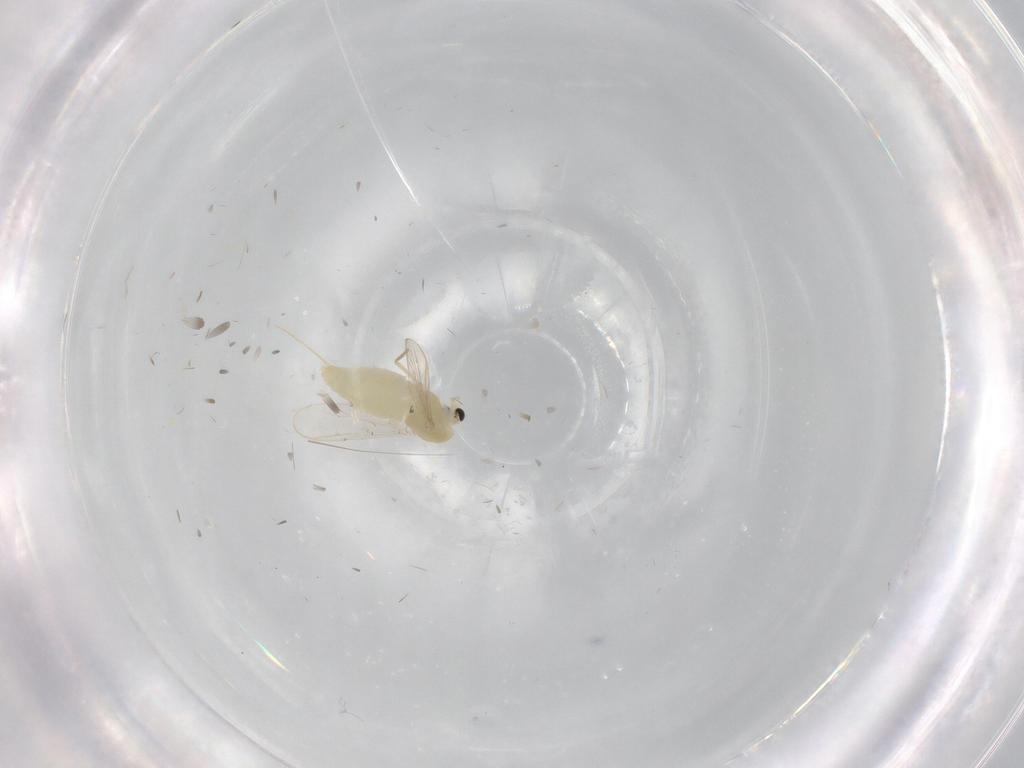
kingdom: Animalia
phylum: Arthropoda
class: Insecta
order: Diptera
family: Chironomidae
